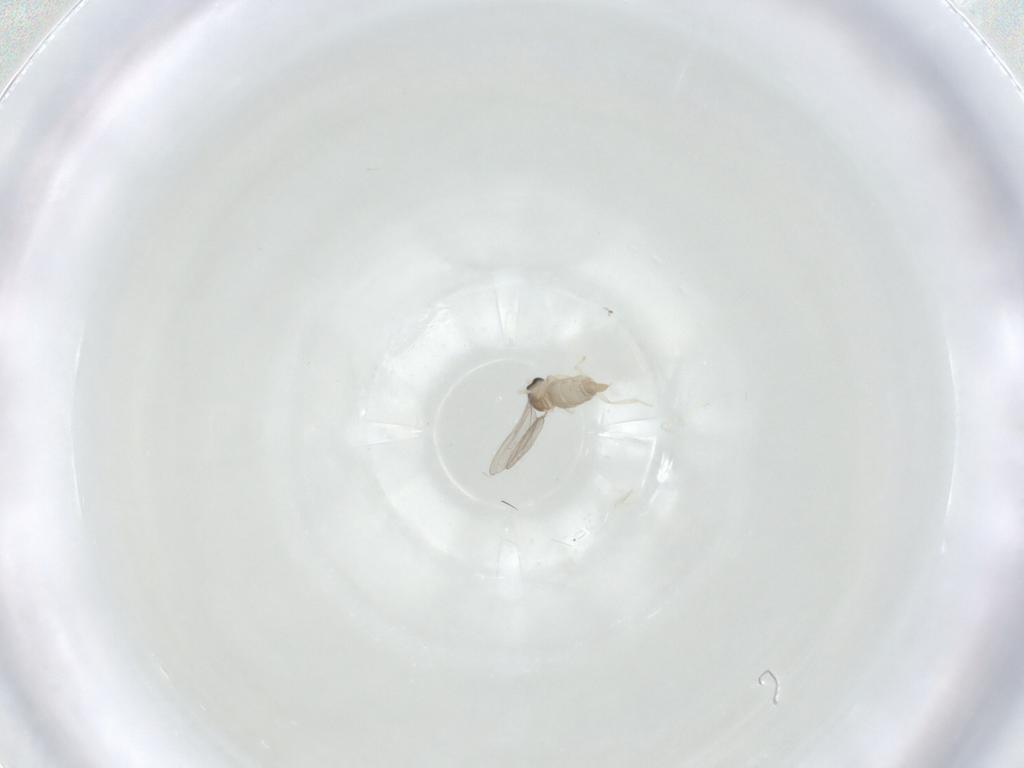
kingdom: Animalia
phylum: Arthropoda
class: Insecta
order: Diptera
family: Cecidomyiidae
